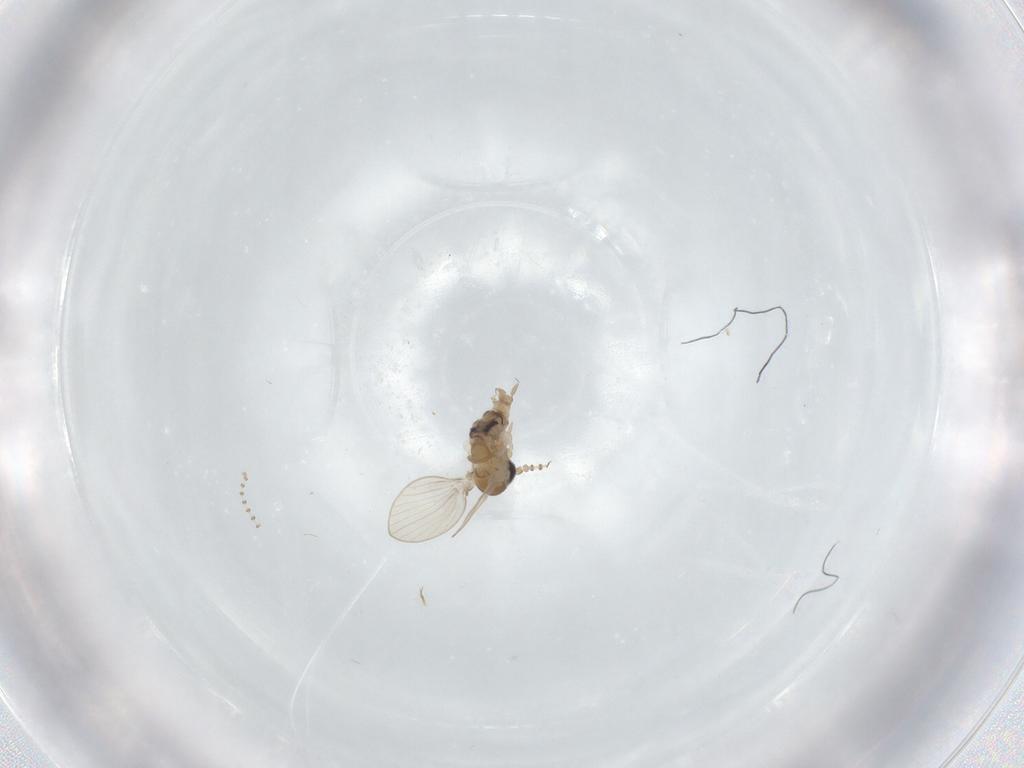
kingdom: Animalia
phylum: Arthropoda
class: Insecta
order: Diptera
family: Cecidomyiidae
